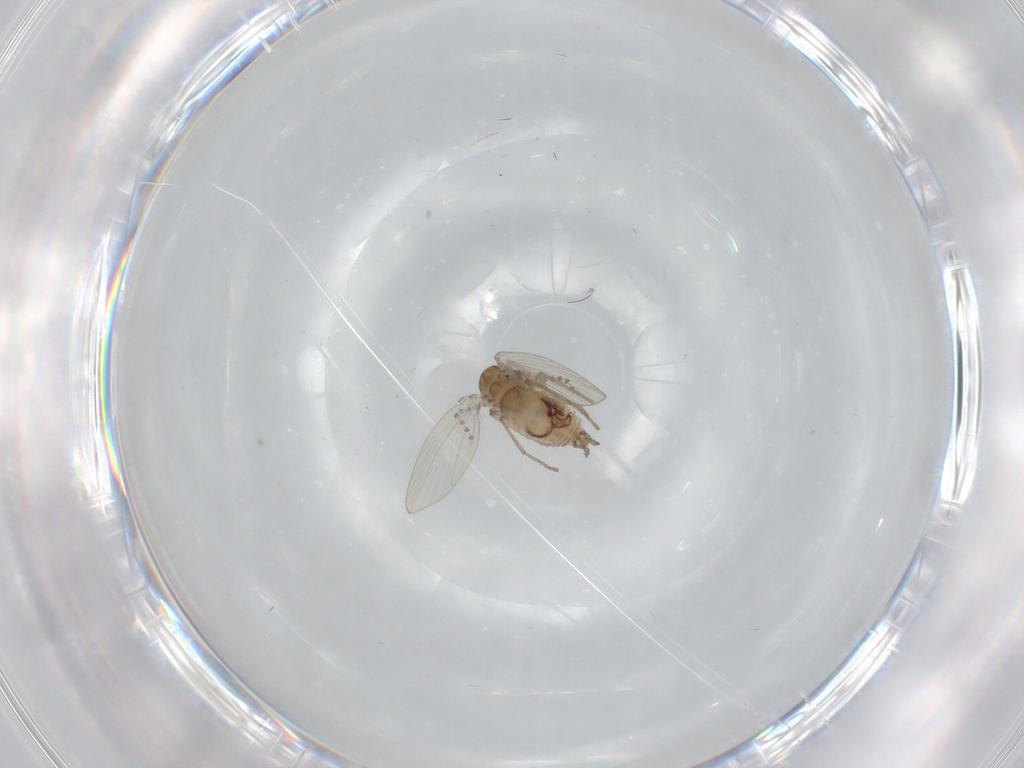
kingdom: Animalia
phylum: Arthropoda
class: Insecta
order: Diptera
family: Psychodidae
